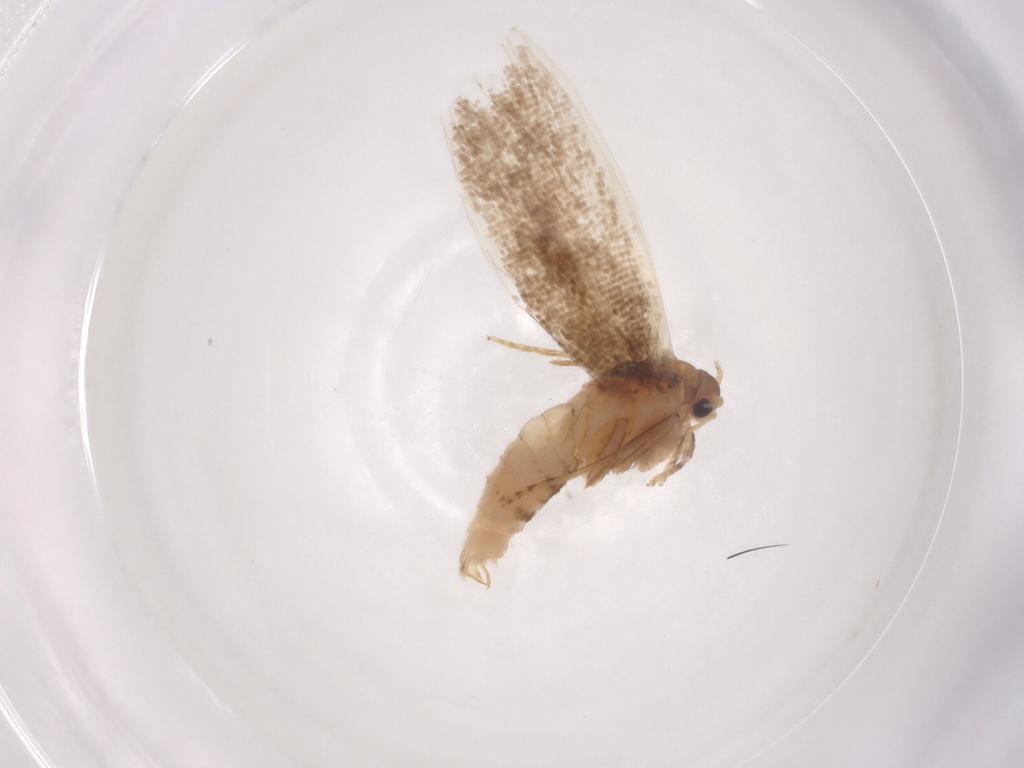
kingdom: Animalia
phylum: Arthropoda
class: Insecta
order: Lepidoptera
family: Tineidae
